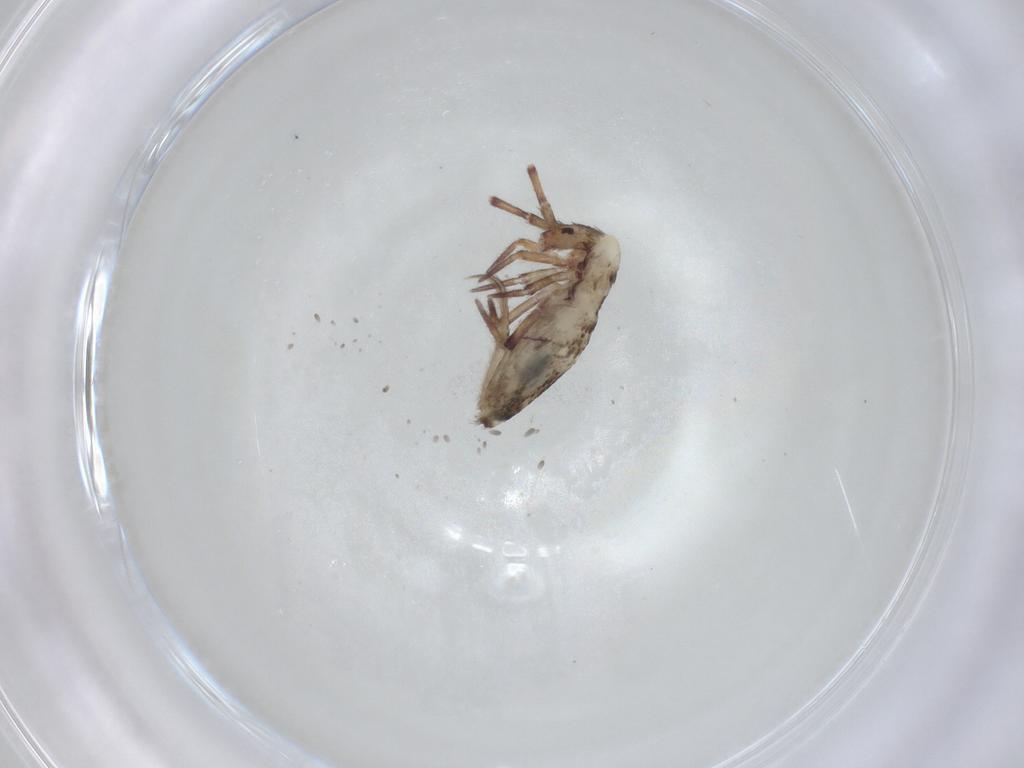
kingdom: Animalia
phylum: Arthropoda
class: Collembola
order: Entomobryomorpha
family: Entomobryidae
